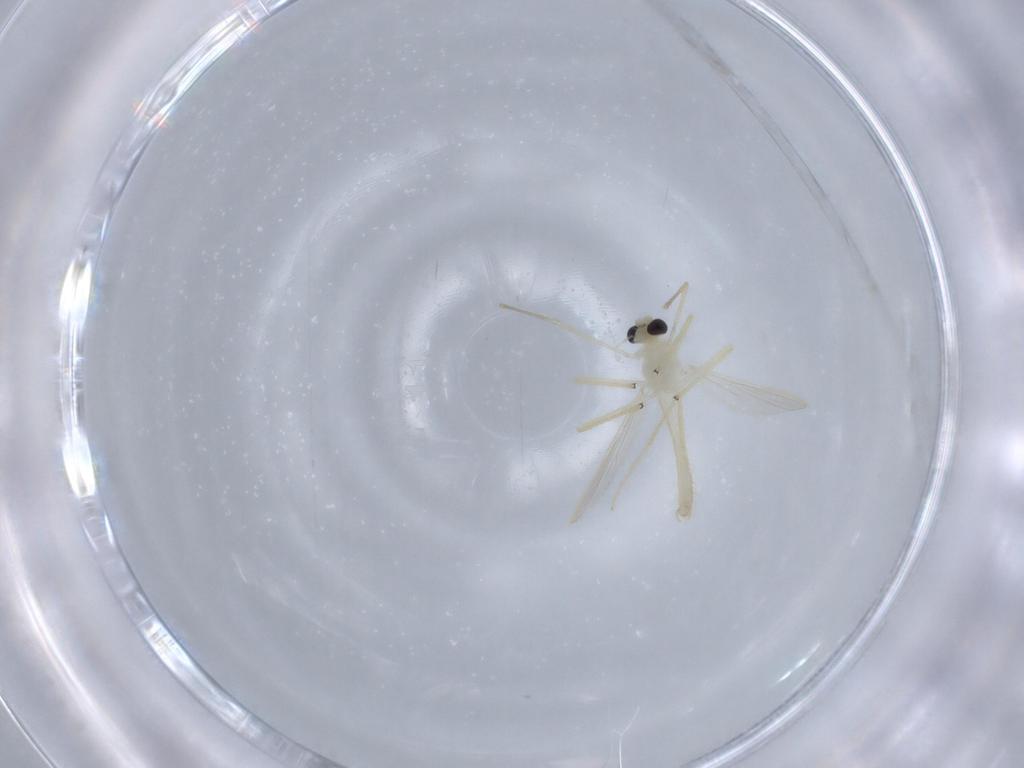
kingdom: Animalia
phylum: Arthropoda
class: Insecta
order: Diptera
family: Chironomidae
